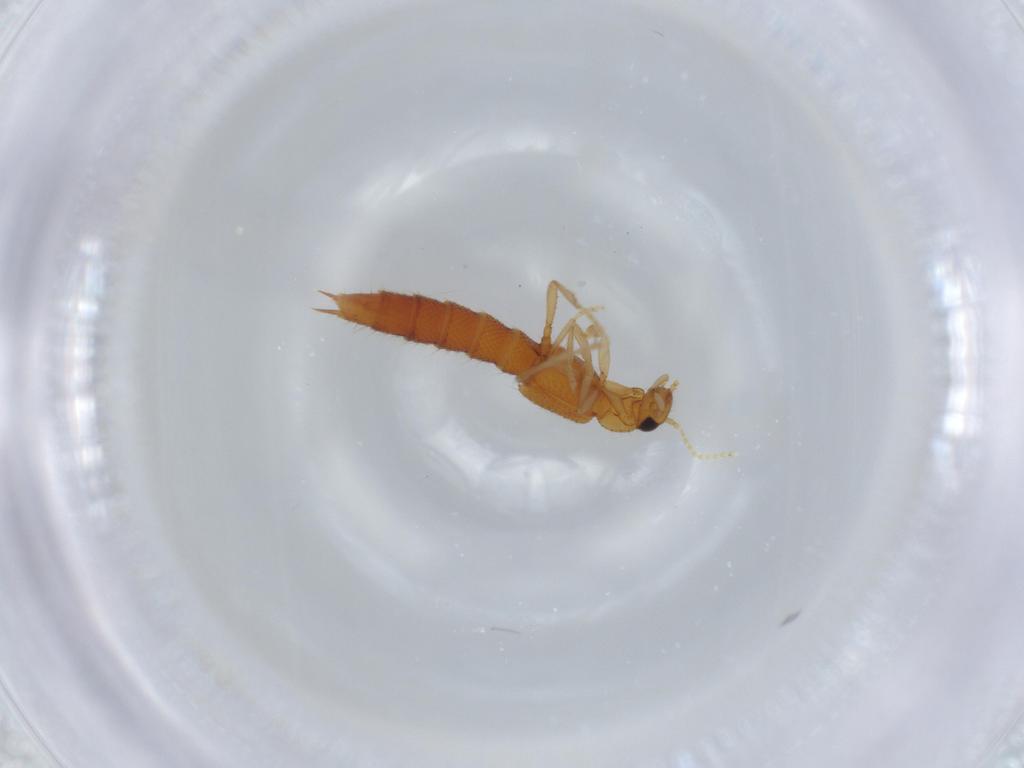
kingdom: Animalia
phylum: Arthropoda
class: Insecta
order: Coleoptera
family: Staphylinidae
